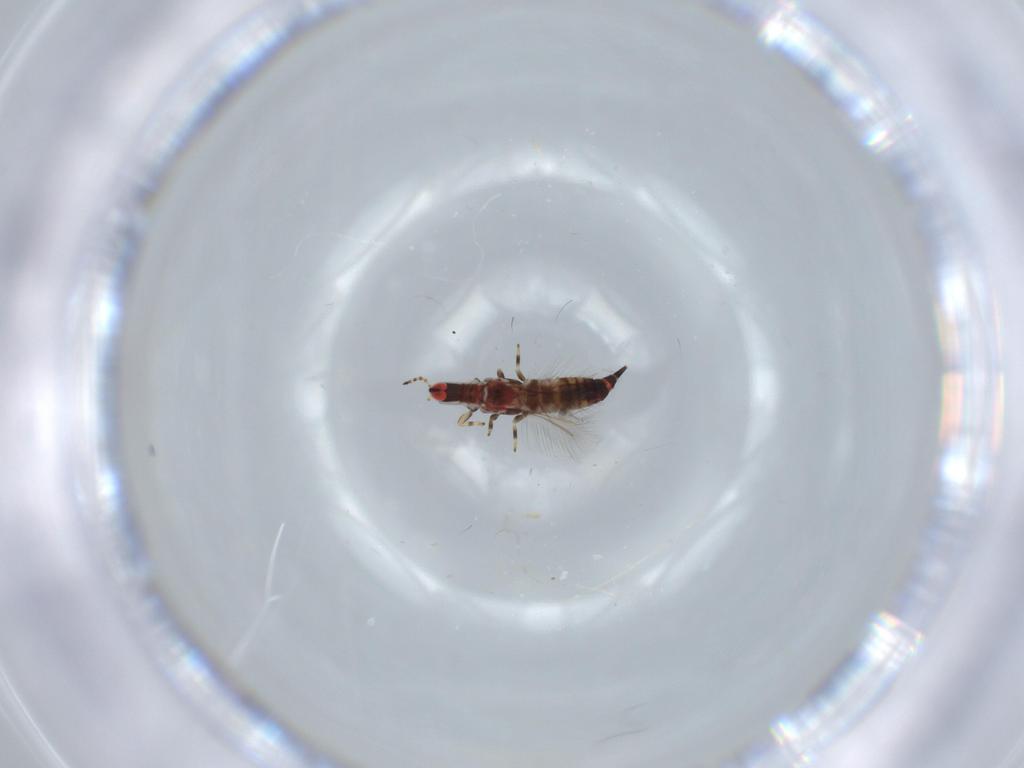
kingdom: Animalia
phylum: Arthropoda
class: Insecta
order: Thysanoptera
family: Phlaeothripidae
